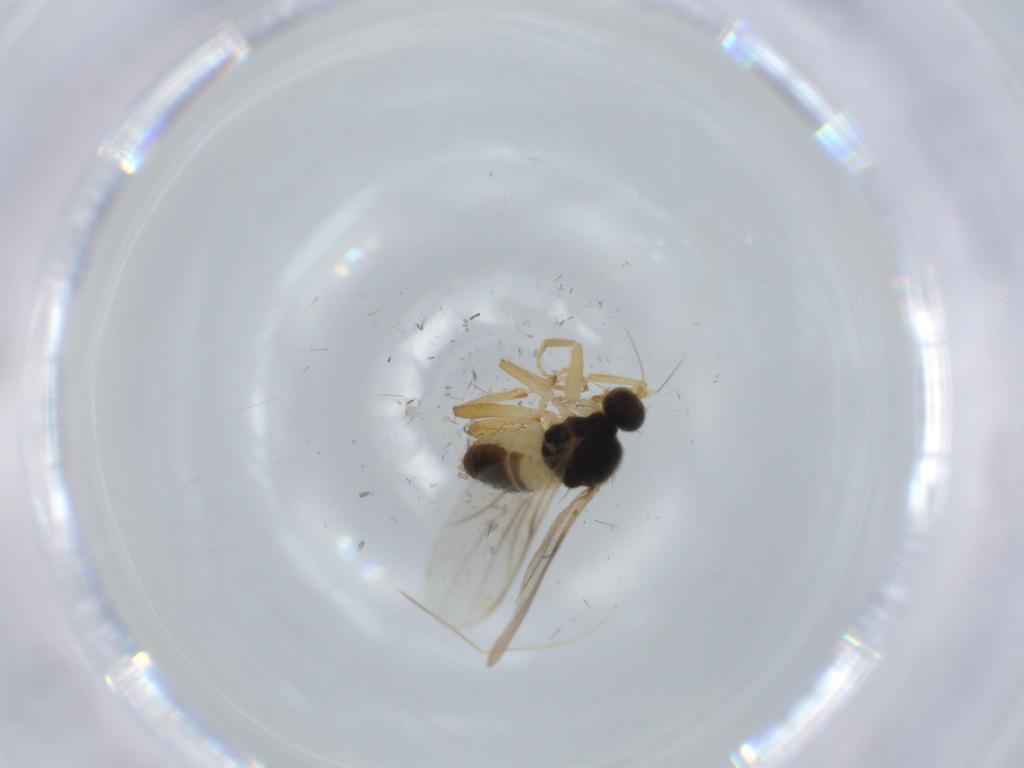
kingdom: Animalia
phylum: Arthropoda
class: Insecta
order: Diptera
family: Hybotidae
